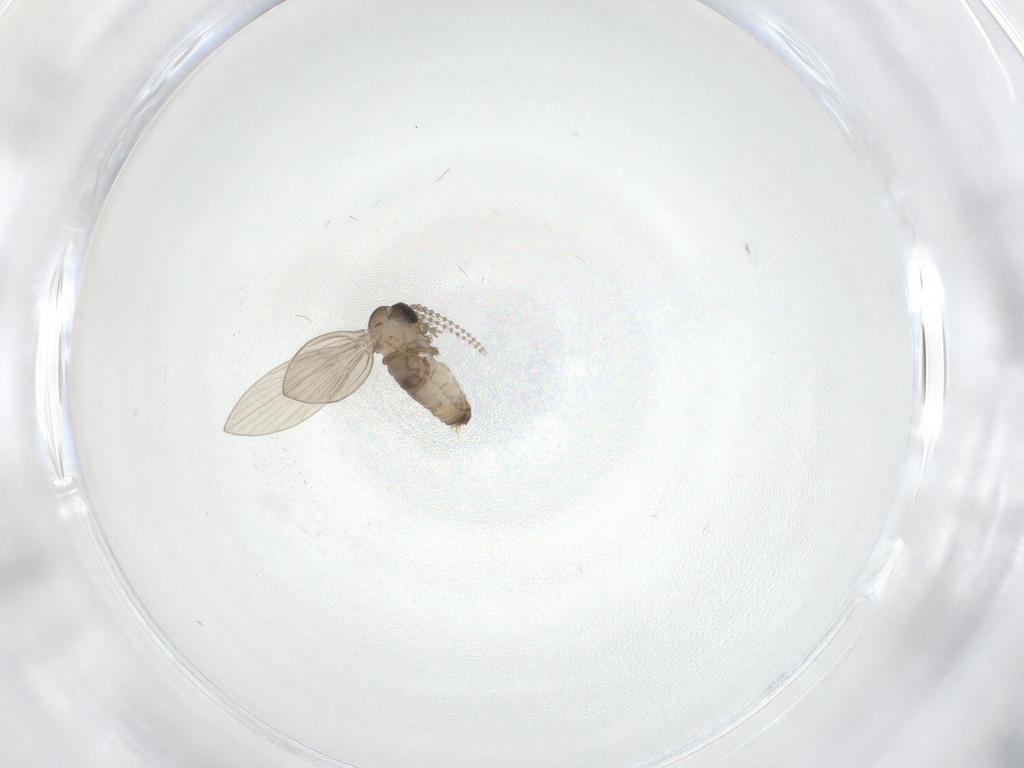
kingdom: Animalia
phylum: Arthropoda
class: Insecta
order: Diptera
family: Psychodidae
